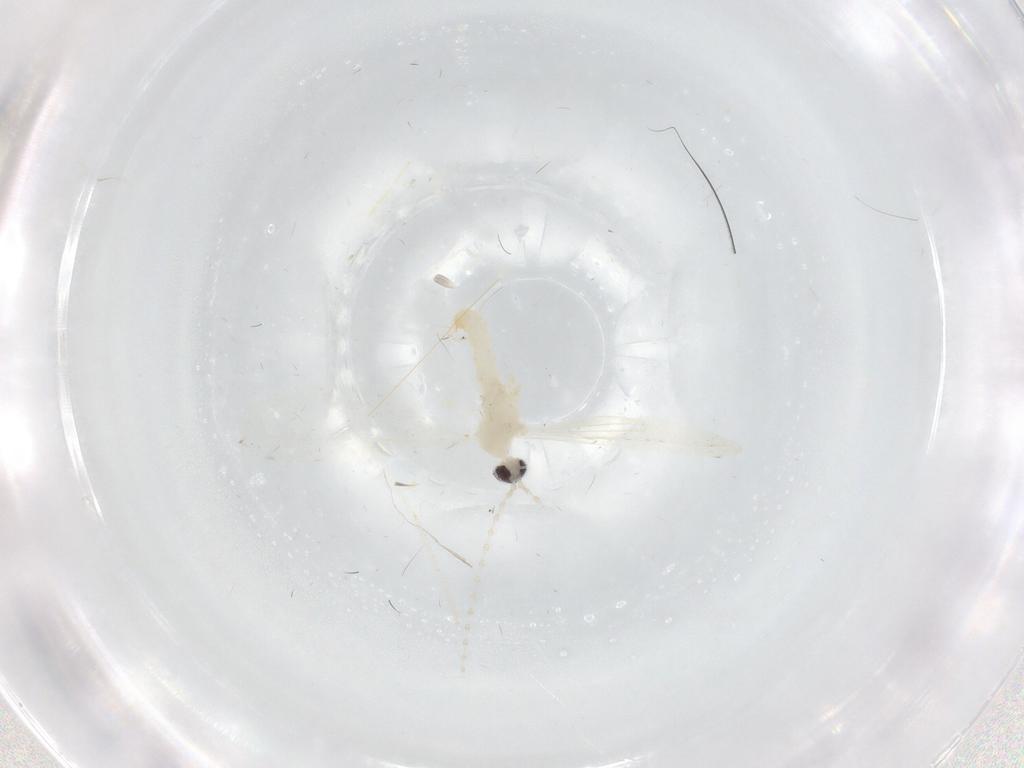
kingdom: Animalia
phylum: Arthropoda
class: Insecta
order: Diptera
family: Cecidomyiidae
